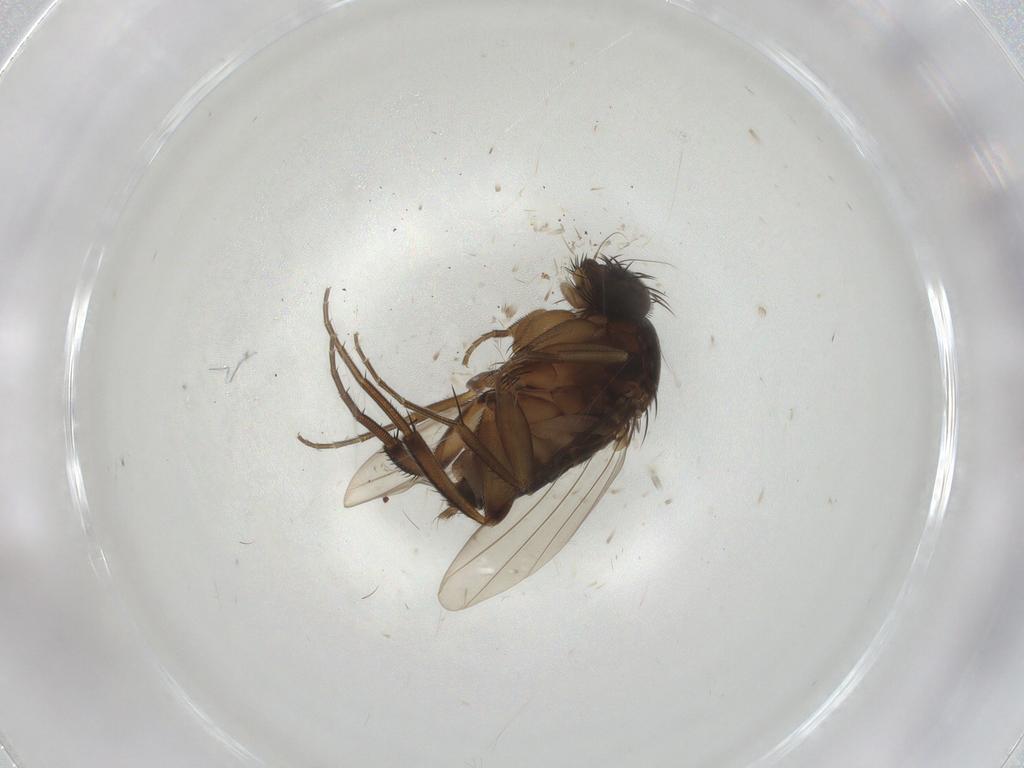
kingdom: Animalia
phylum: Arthropoda
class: Insecta
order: Diptera
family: Phoridae
